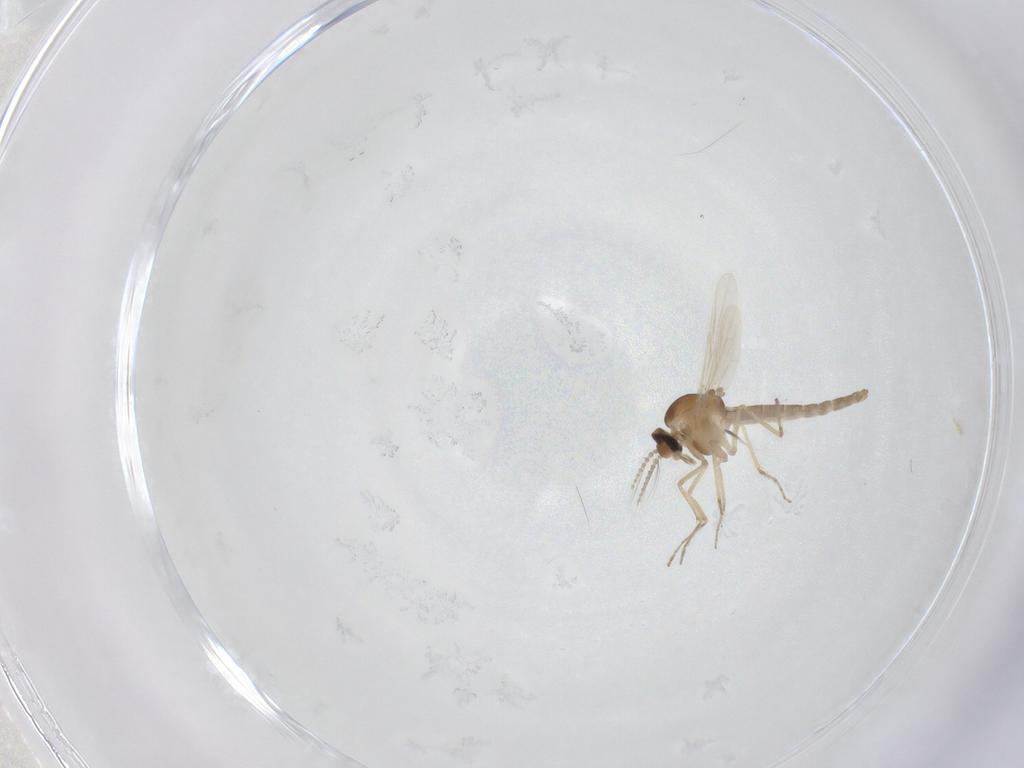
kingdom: Animalia
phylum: Arthropoda
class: Insecta
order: Diptera
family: Ceratopogonidae
